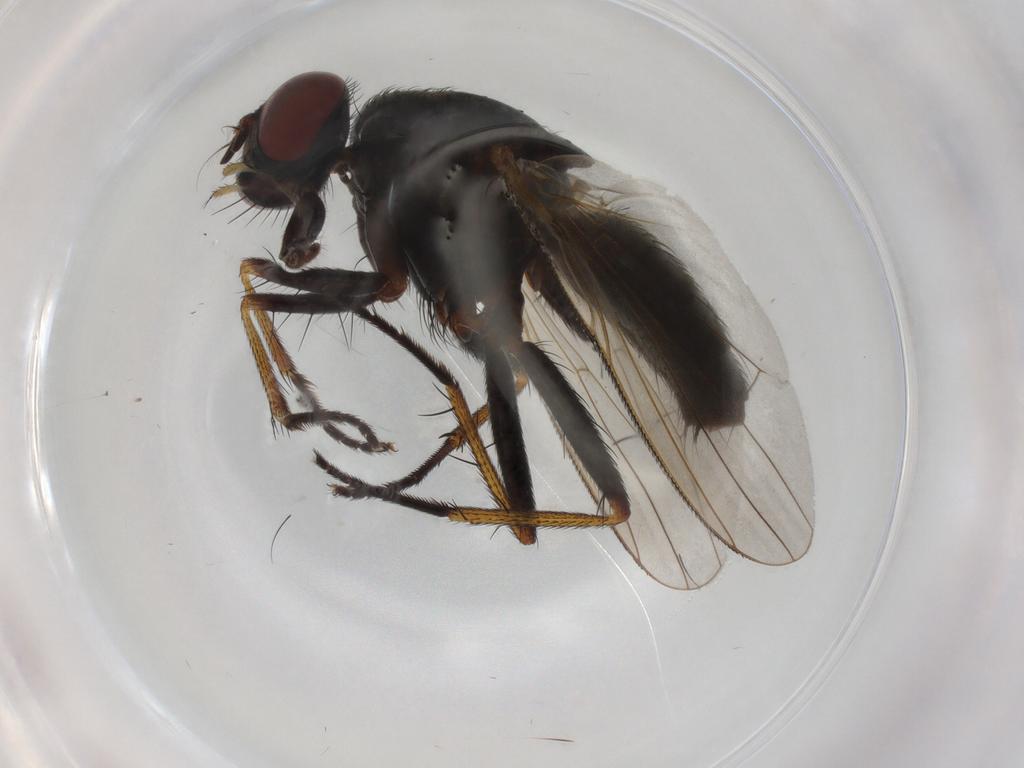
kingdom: Animalia
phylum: Arthropoda
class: Insecta
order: Diptera
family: Muscidae
